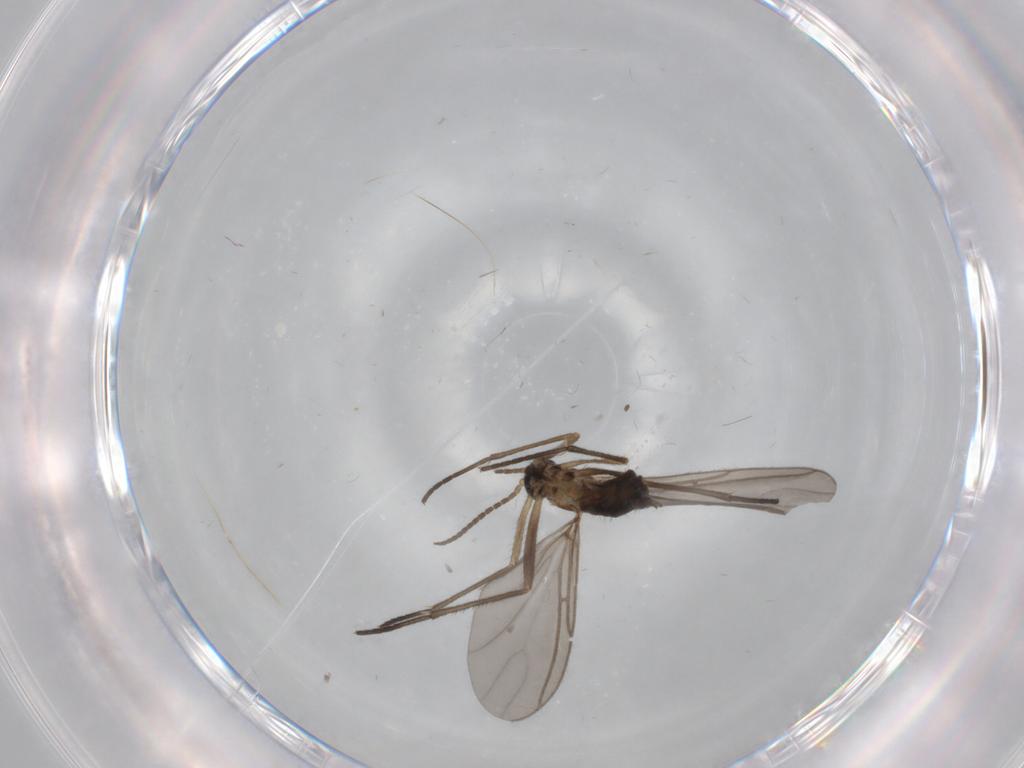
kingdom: Animalia
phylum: Arthropoda
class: Insecta
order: Diptera
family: Sciaridae
